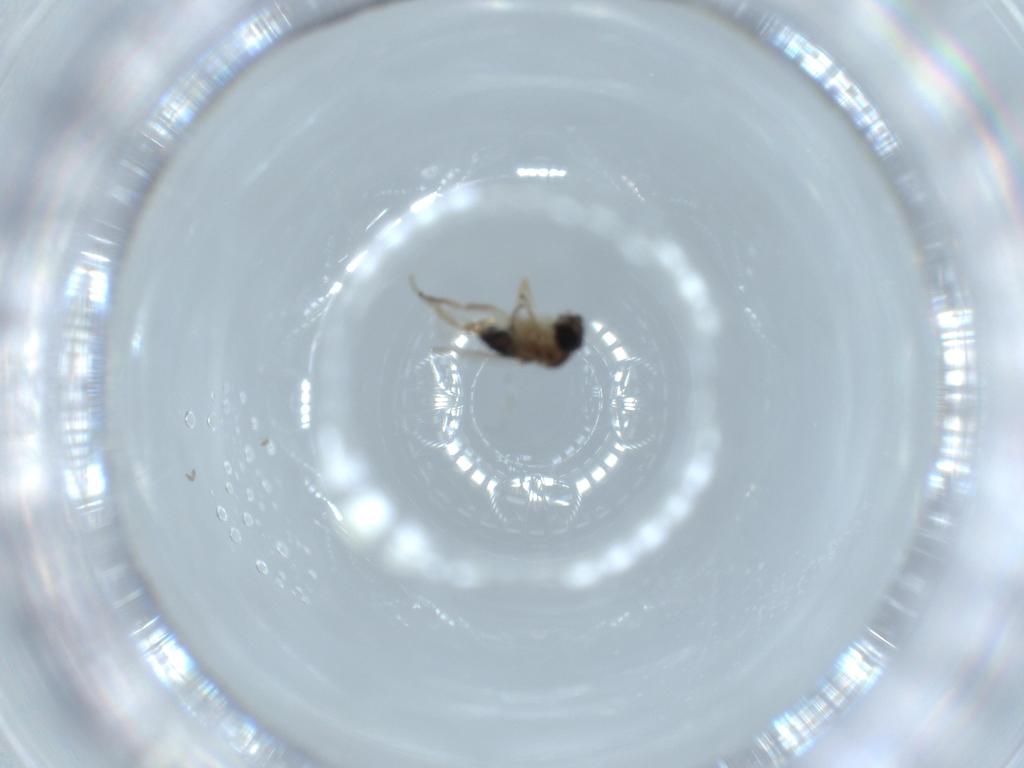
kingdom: Animalia
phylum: Arthropoda
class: Insecta
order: Diptera
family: Phoridae
